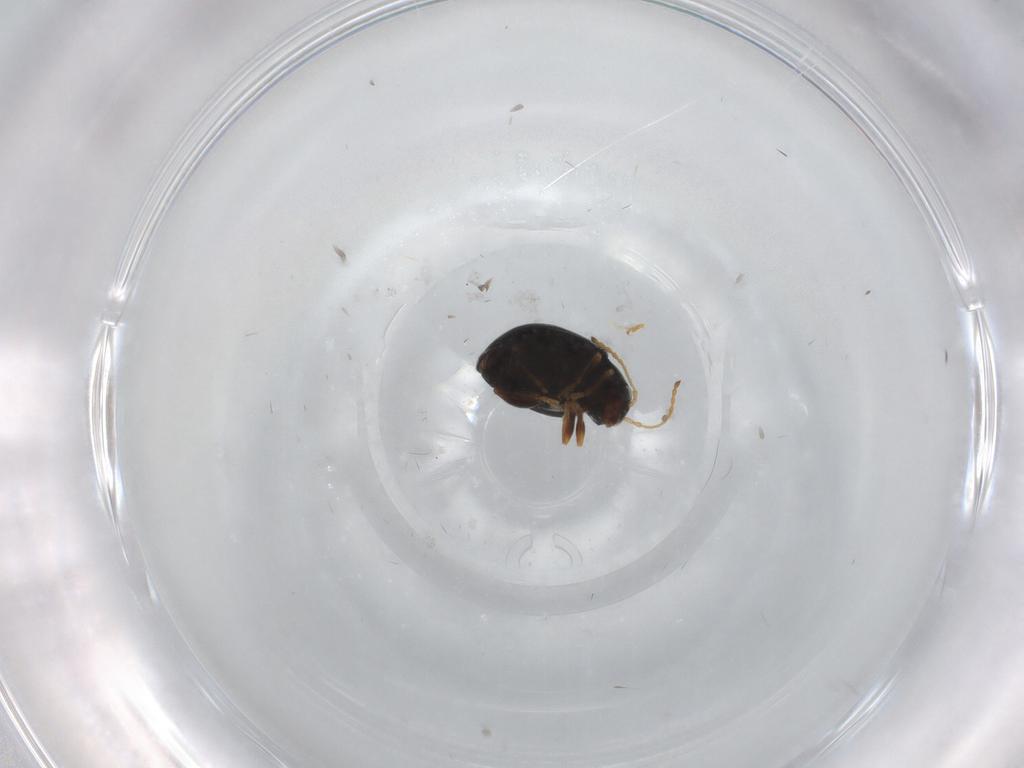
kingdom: Animalia
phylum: Arthropoda
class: Insecta
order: Coleoptera
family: Chrysomelidae
